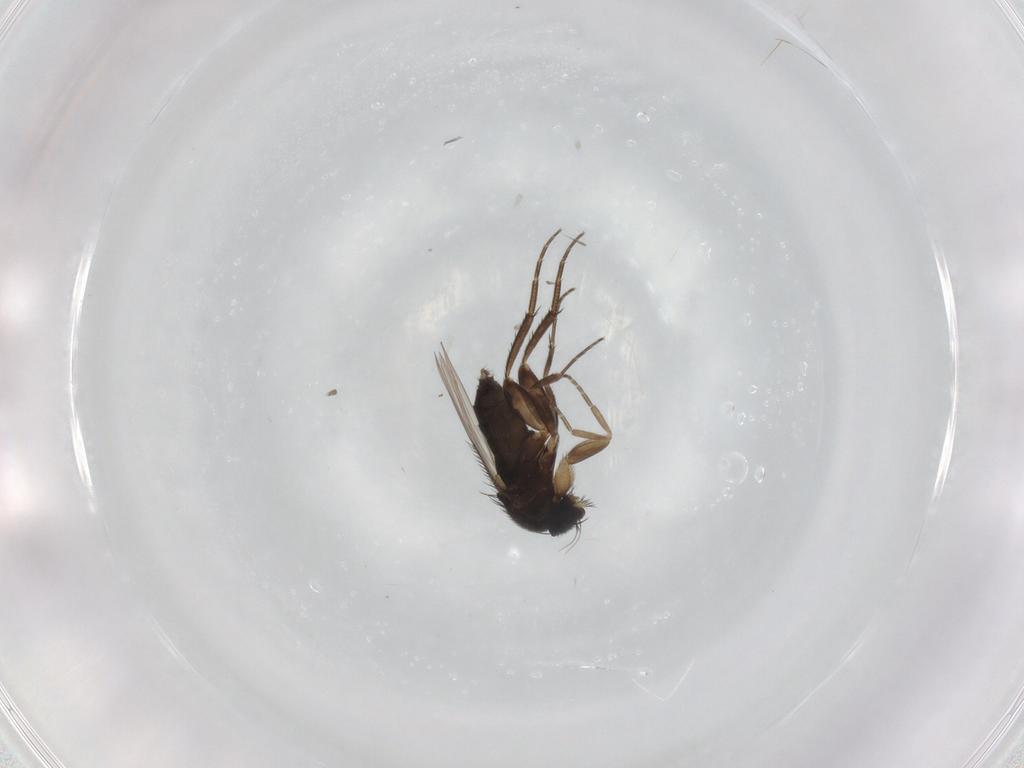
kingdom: Animalia
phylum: Arthropoda
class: Insecta
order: Diptera
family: Phoridae
